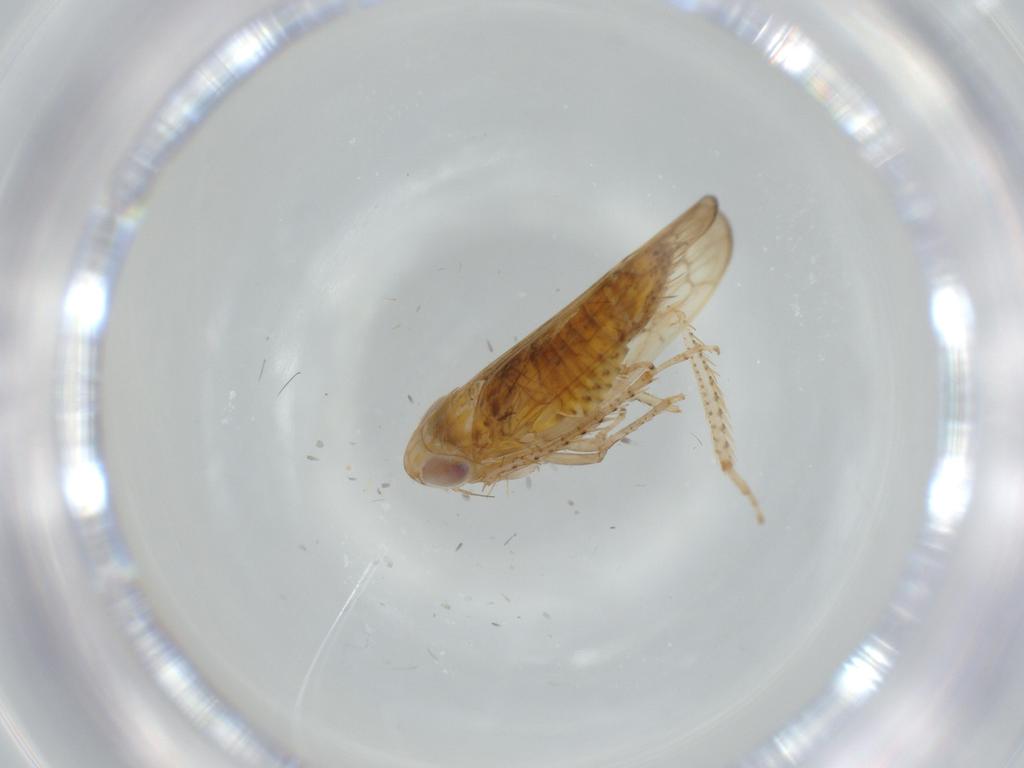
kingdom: Animalia
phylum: Arthropoda
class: Insecta
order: Hemiptera
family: Cicadellidae
